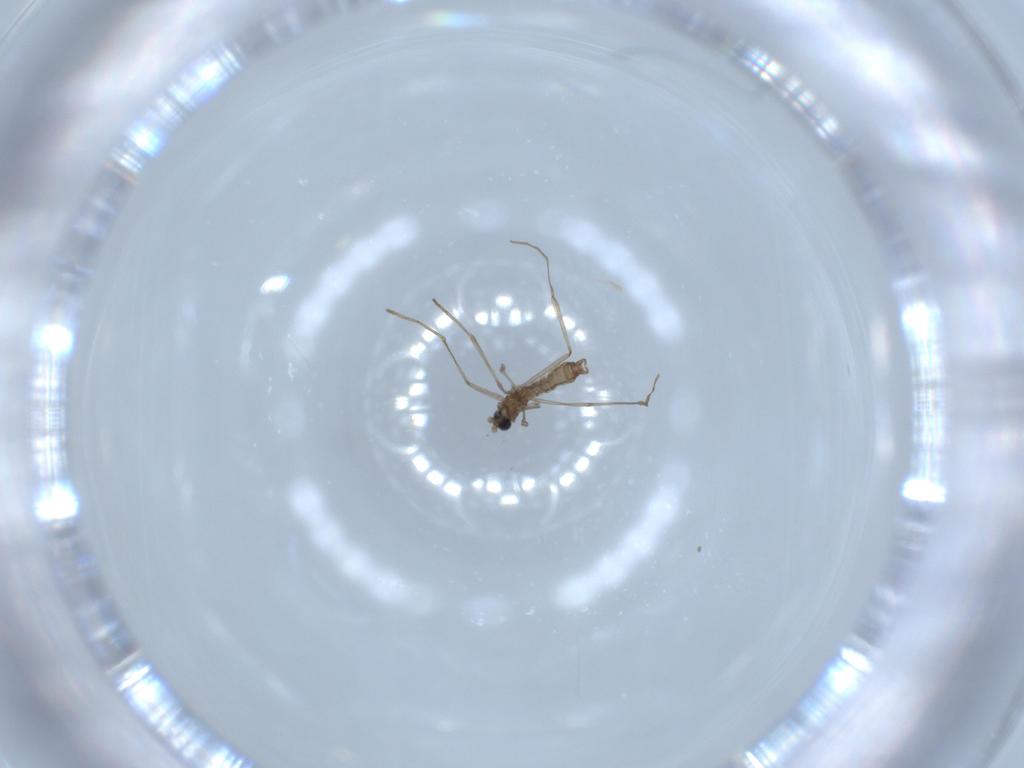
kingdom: Animalia
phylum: Arthropoda
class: Insecta
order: Diptera
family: Cecidomyiidae
